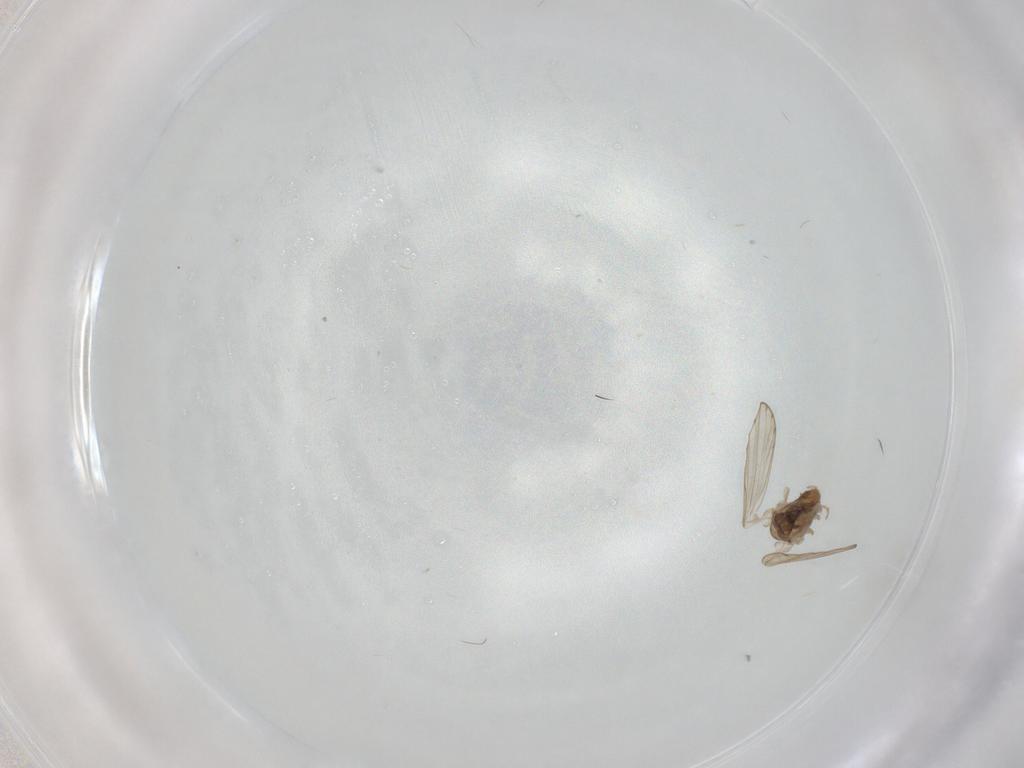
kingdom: Animalia
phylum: Arthropoda
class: Insecta
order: Diptera
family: Psychodidae
